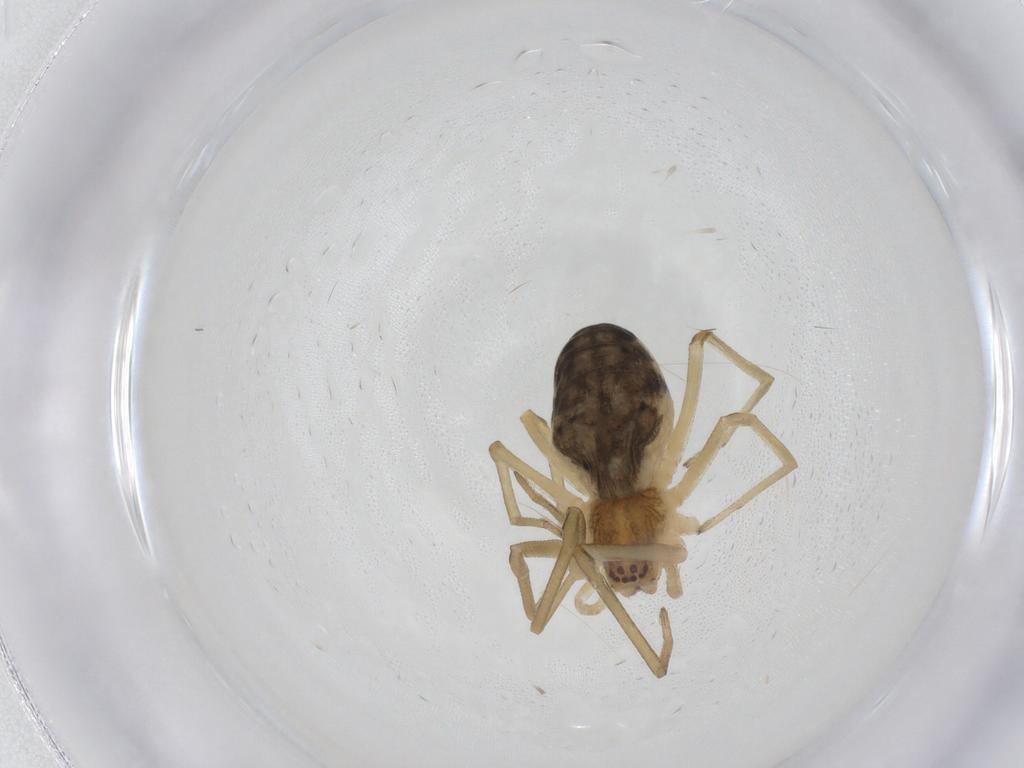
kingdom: Animalia
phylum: Arthropoda
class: Arachnida
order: Araneae
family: Dictynidae
